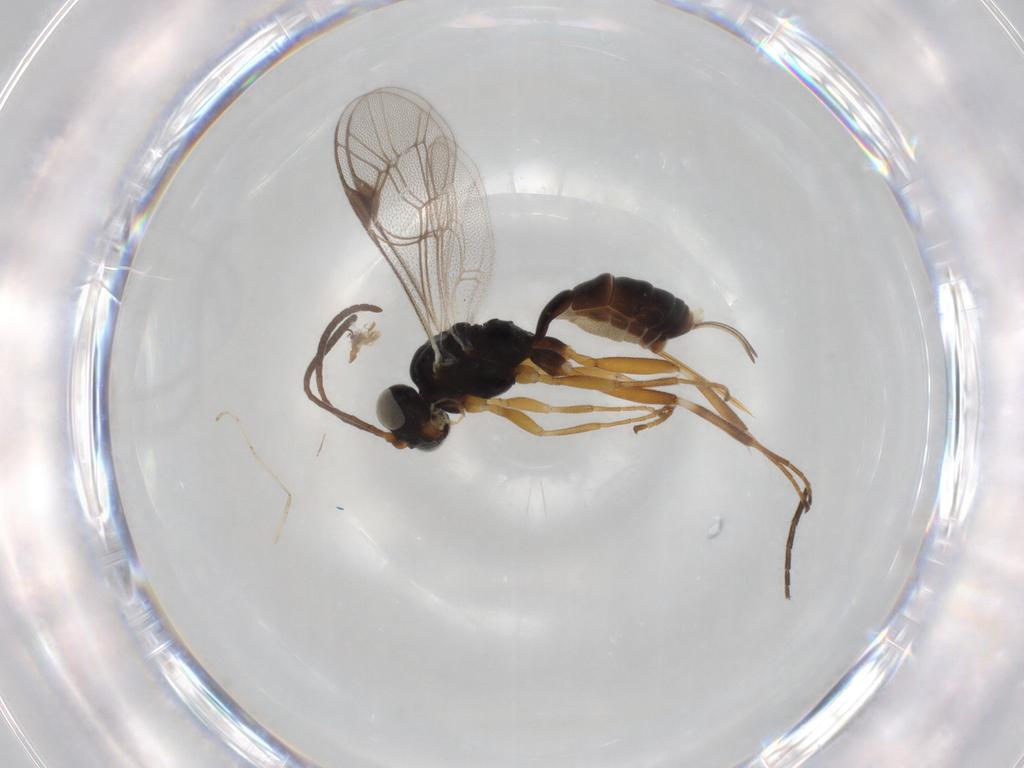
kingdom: Animalia
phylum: Arthropoda
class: Insecta
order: Hymenoptera
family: Ichneumonidae
